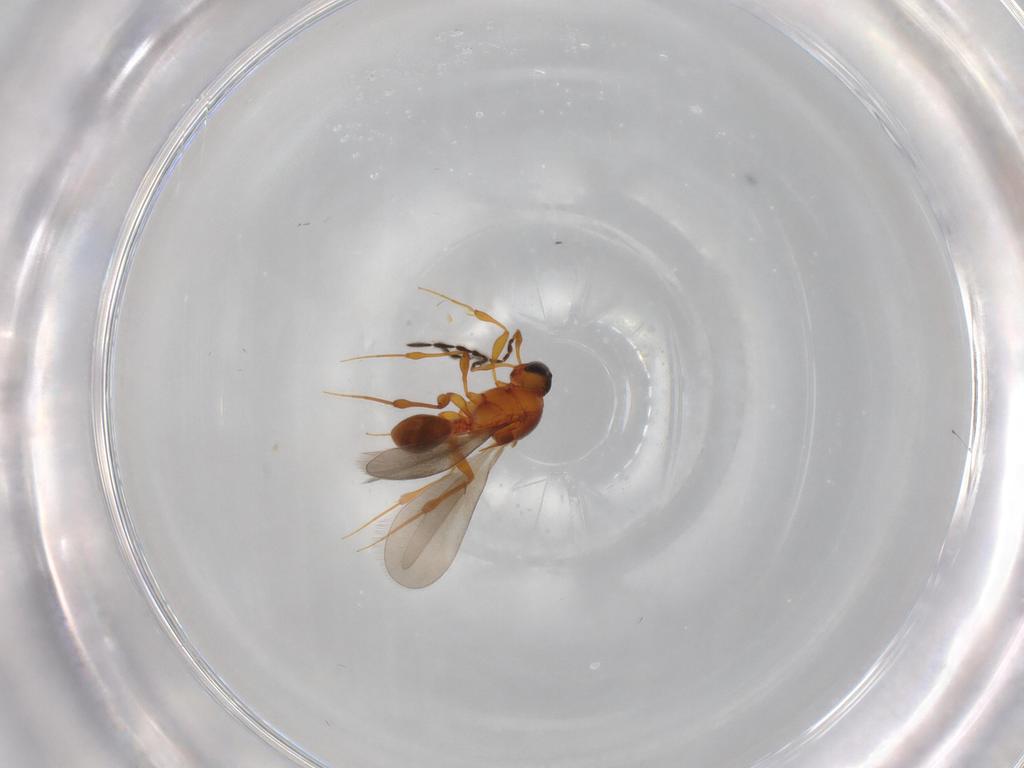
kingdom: Animalia
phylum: Arthropoda
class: Insecta
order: Hymenoptera
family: Platygastridae
